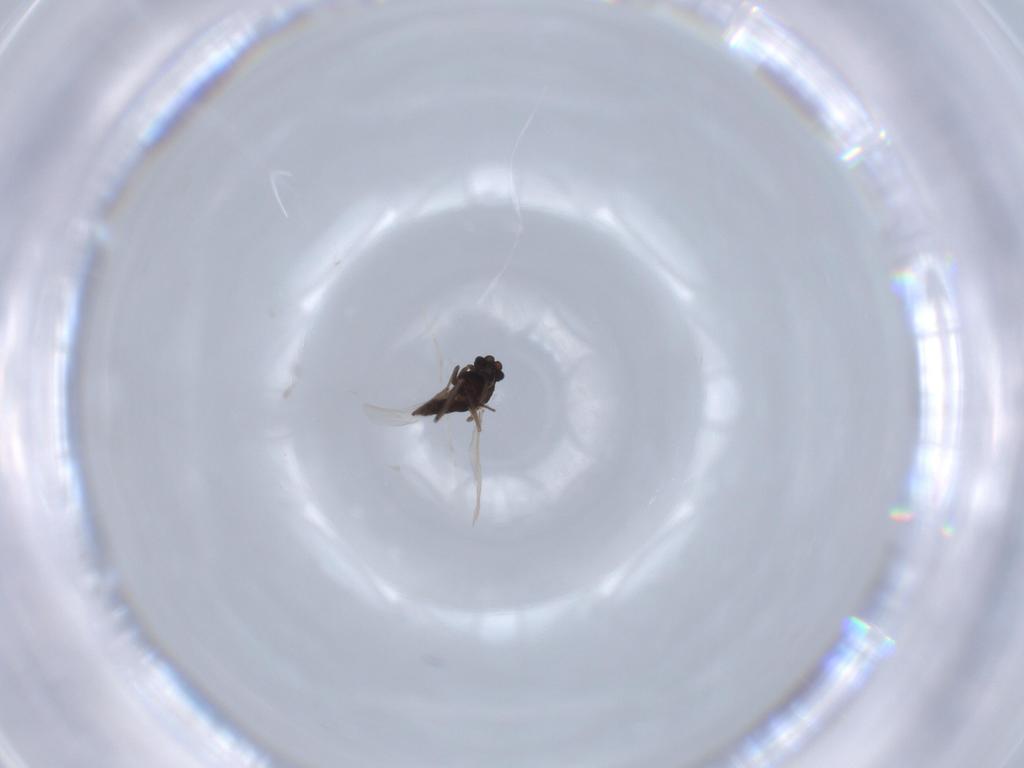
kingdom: Animalia
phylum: Arthropoda
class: Insecta
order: Diptera
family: Chironomidae
